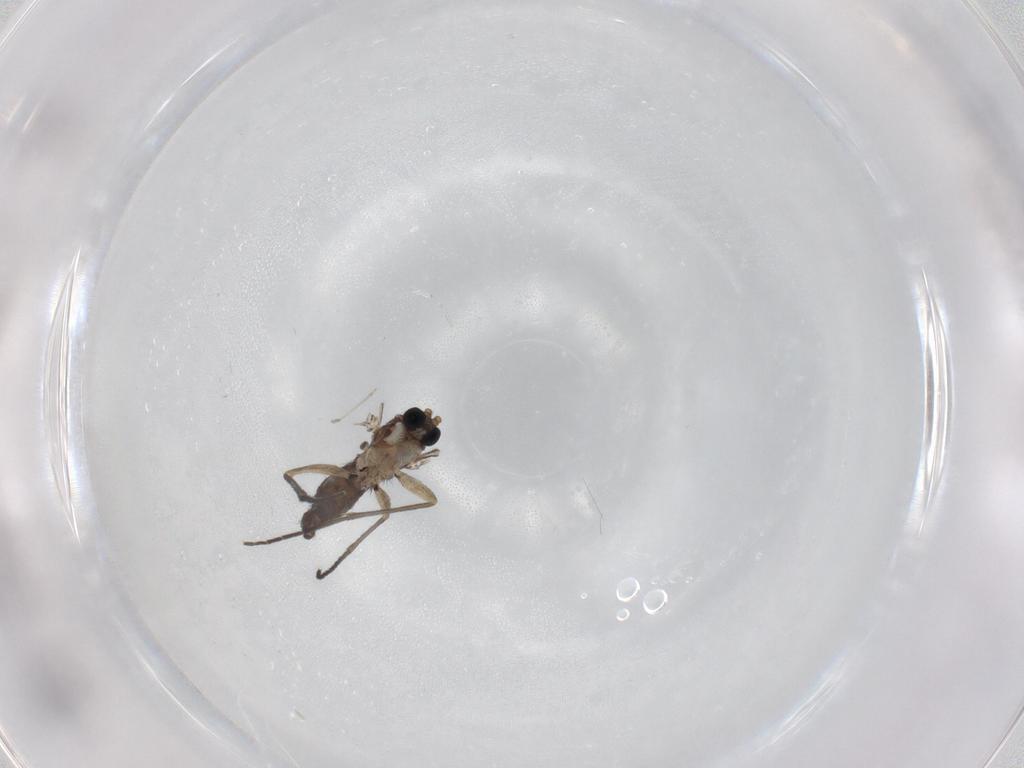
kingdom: Animalia
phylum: Arthropoda
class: Insecta
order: Diptera
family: Sciaridae
